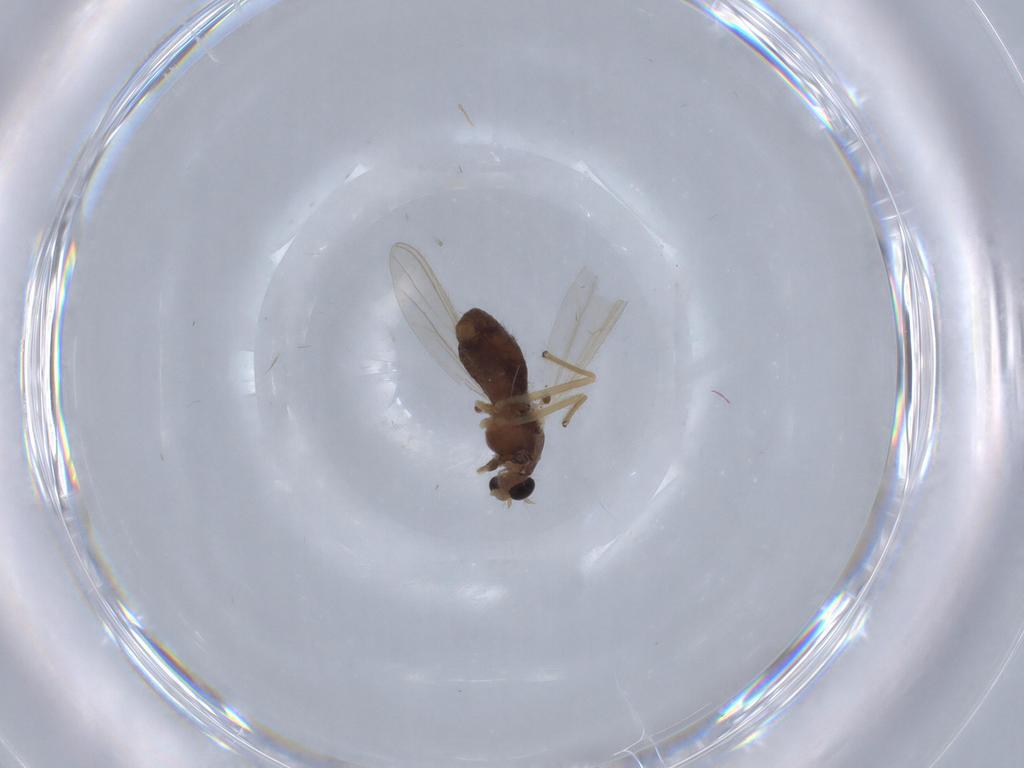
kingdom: Animalia
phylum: Arthropoda
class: Insecta
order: Diptera
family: Chironomidae
